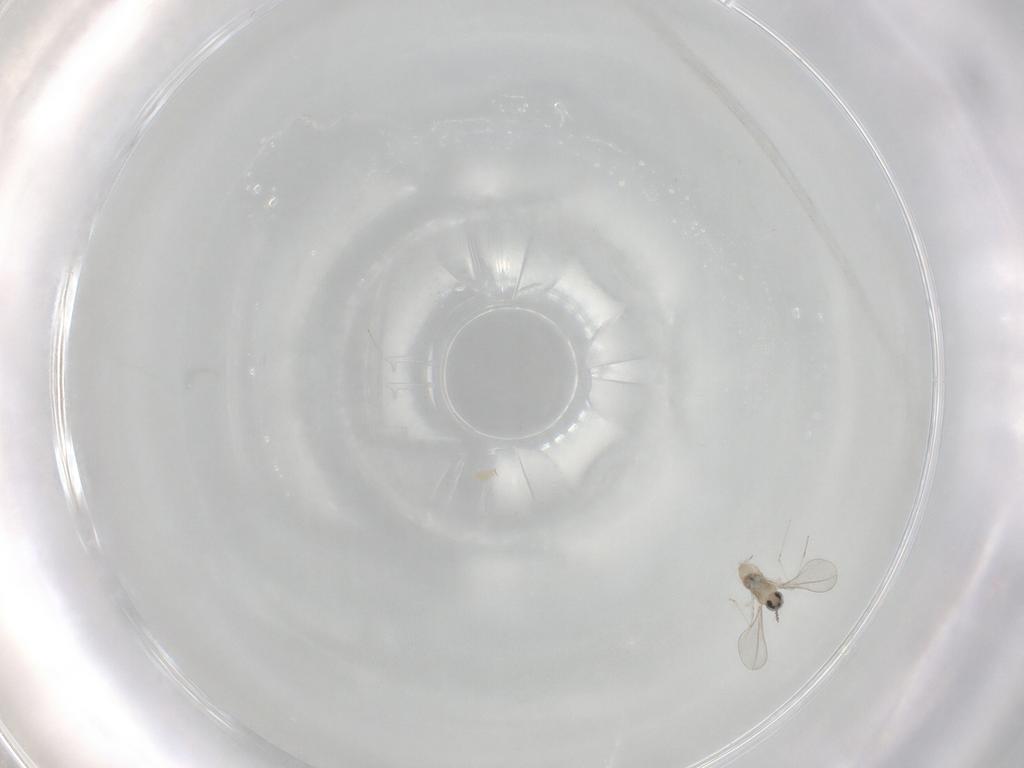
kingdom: Animalia
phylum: Arthropoda
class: Insecta
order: Diptera
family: Cecidomyiidae
